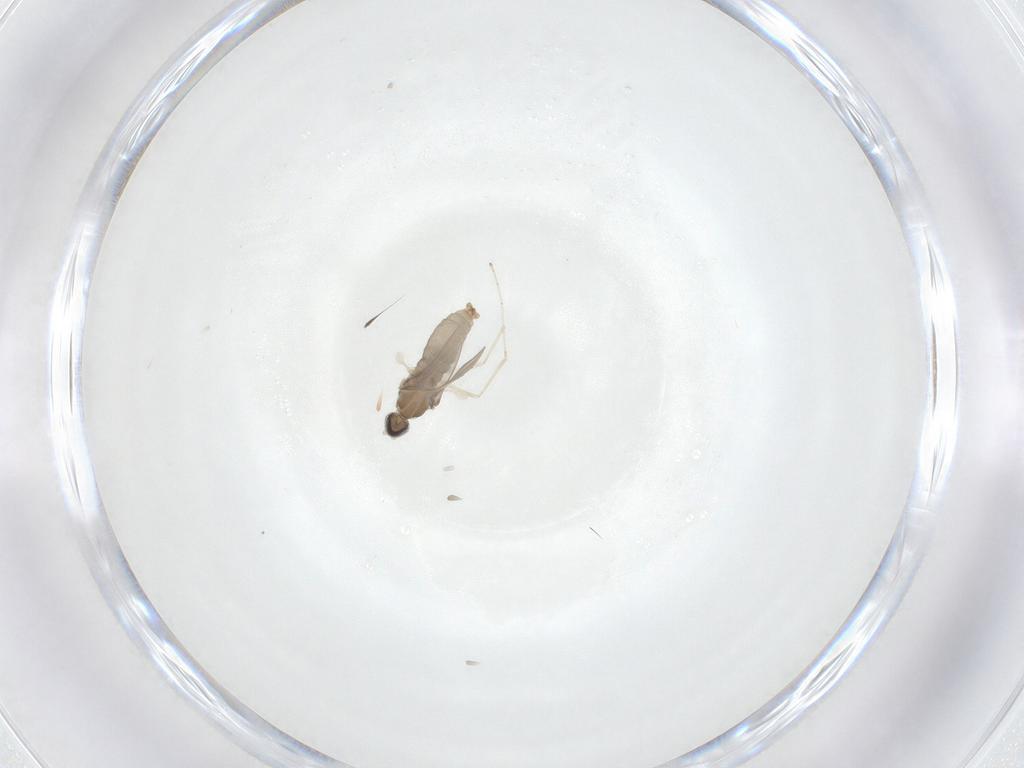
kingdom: Animalia
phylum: Arthropoda
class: Insecta
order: Diptera
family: Cecidomyiidae
